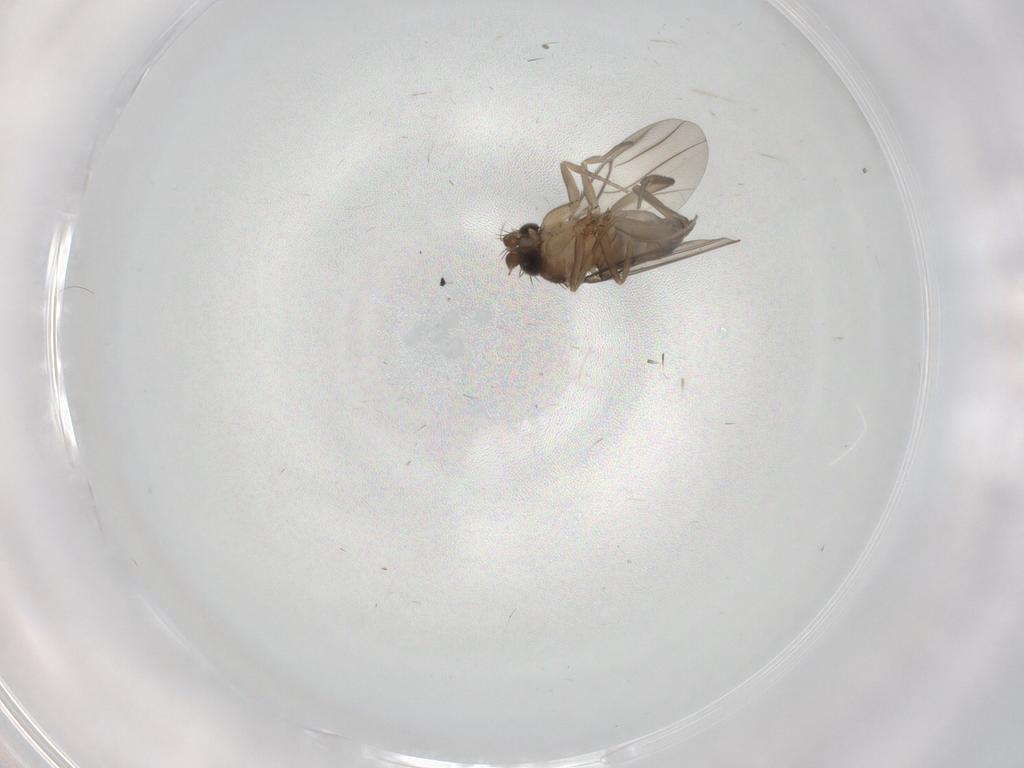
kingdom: Animalia
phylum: Arthropoda
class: Insecta
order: Diptera
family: Phoridae
